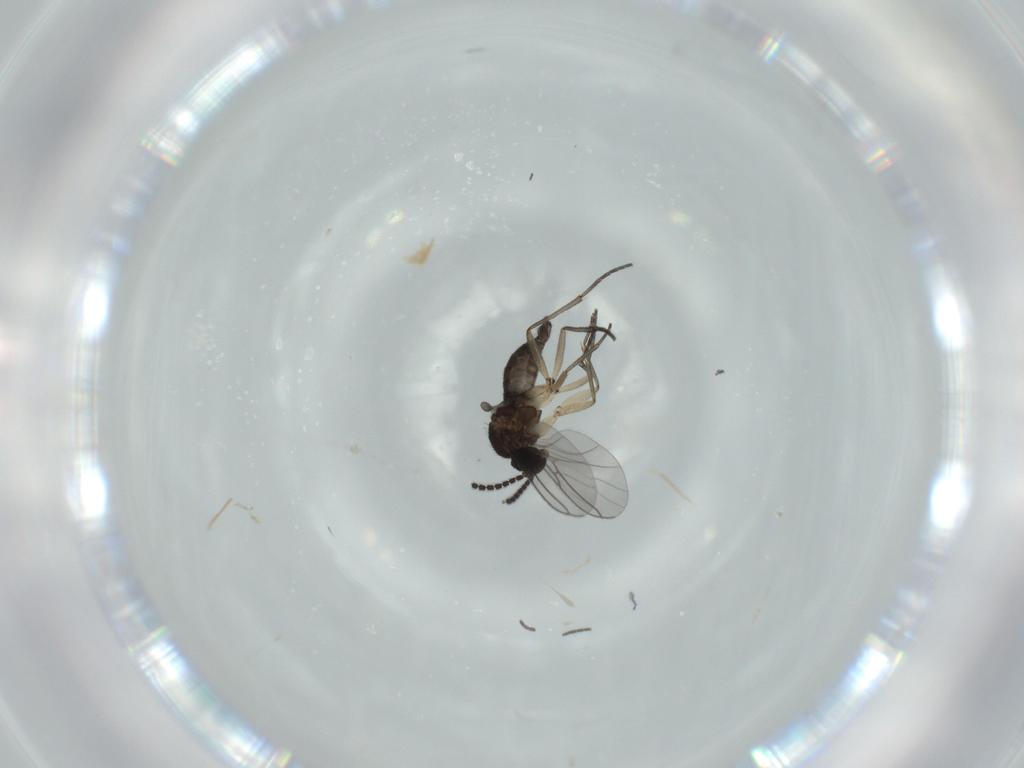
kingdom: Animalia
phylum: Arthropoda
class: Insecta
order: Diptera
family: Sciaridae
